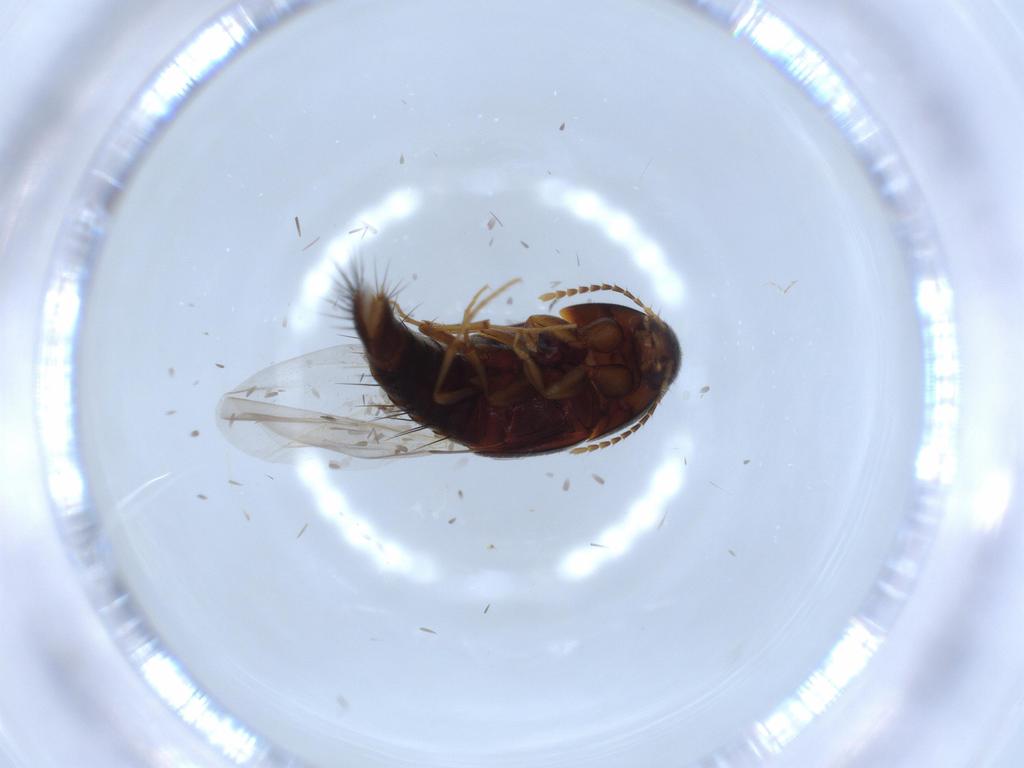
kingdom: Animalia
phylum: Arthropoda
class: Insecta
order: Coleoptera
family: Staphylinidae
